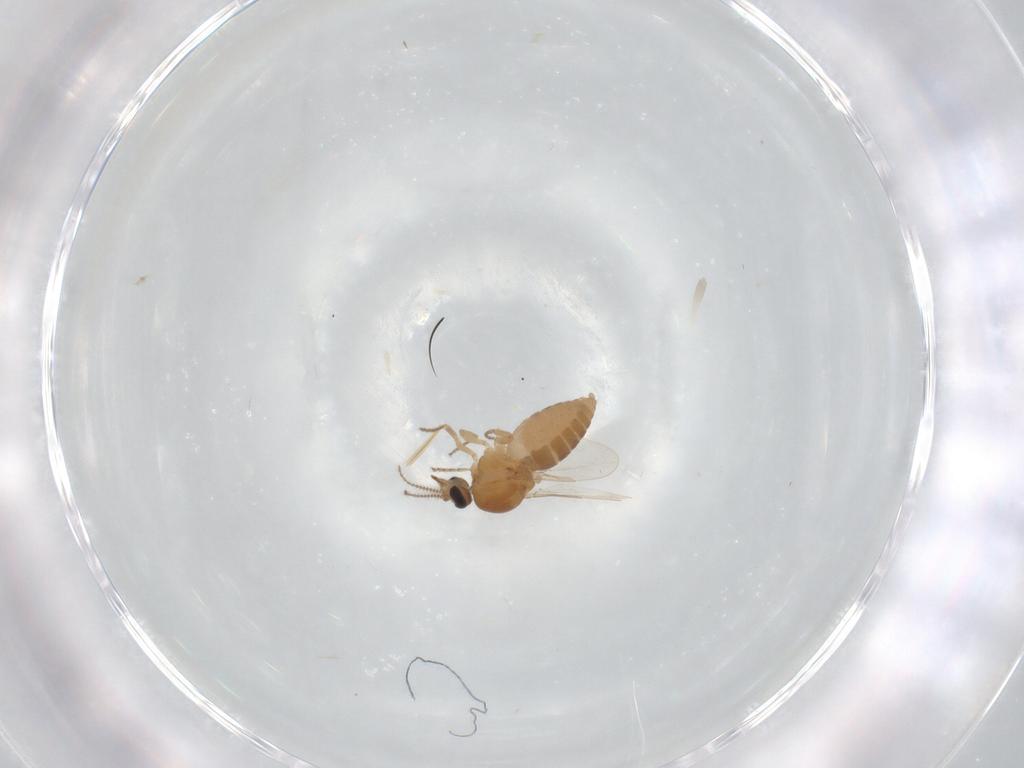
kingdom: Animalia
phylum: Arthropoda
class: Insecta
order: Diptera
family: Ceratopogonidae
